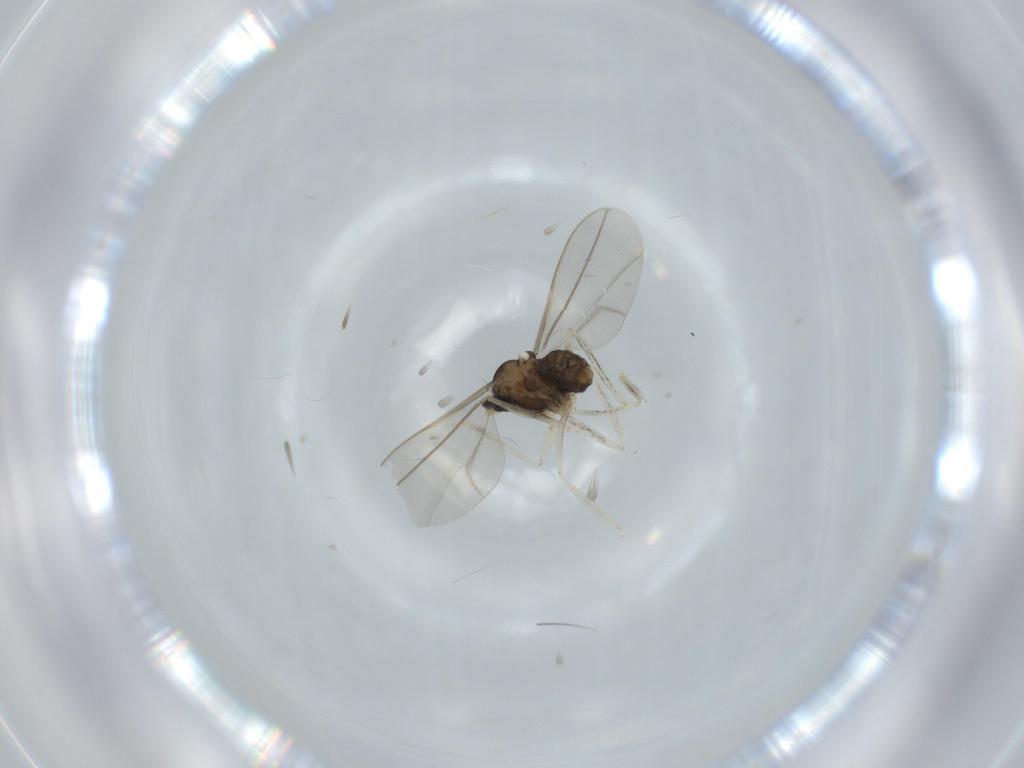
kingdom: Animalia
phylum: Arthropoda
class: Insecta
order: Diptera
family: Cecidomyiidae
